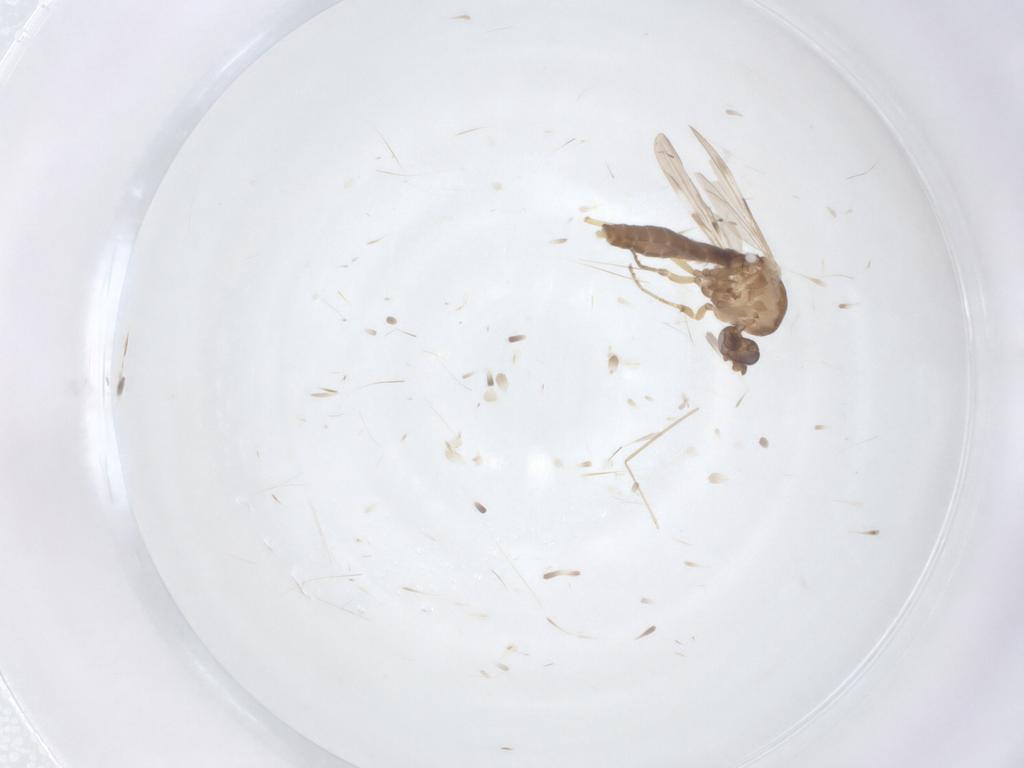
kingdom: Animalia
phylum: Arthropoda
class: Insecta
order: Diptera
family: Ceratopogonidae
